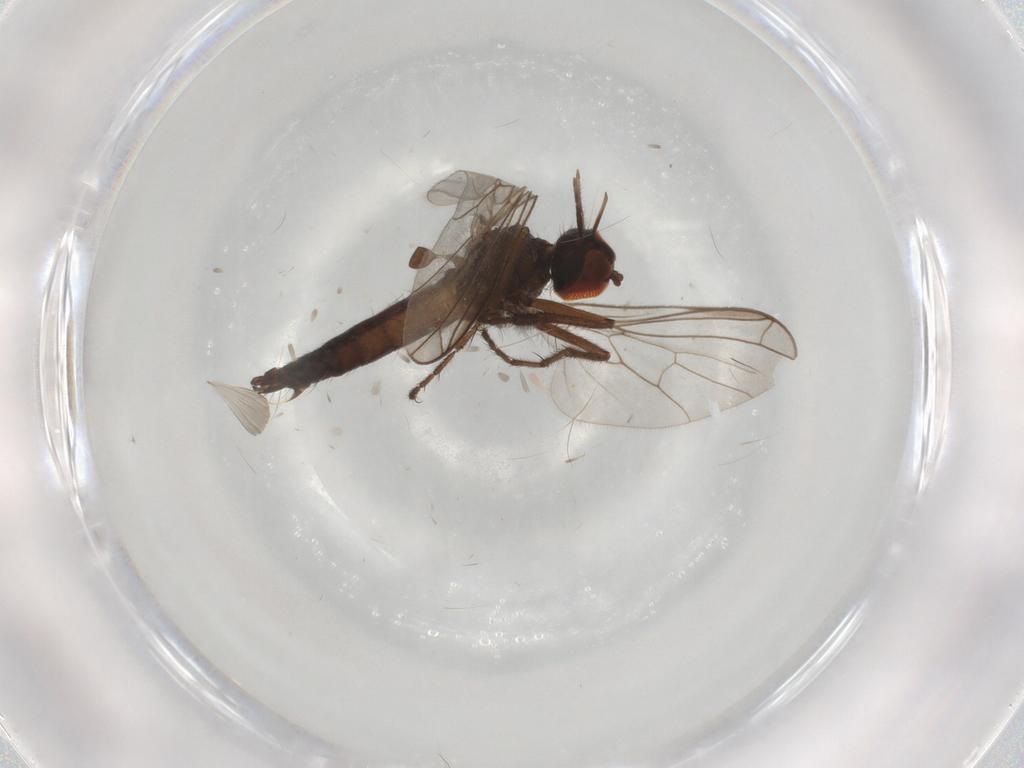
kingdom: Animalia
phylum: Arthropoda
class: Insecta
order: Diptera
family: Empididae
